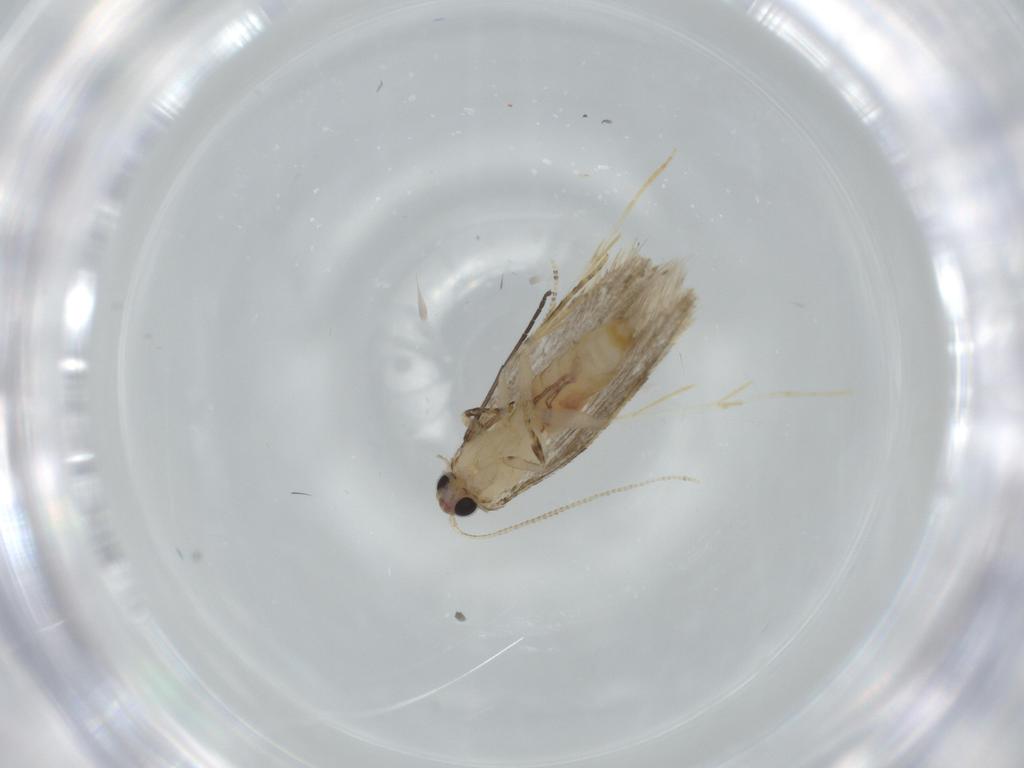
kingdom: Animalia
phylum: Arthropoda
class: Insecta
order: Lepidoptera
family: Tineidae
